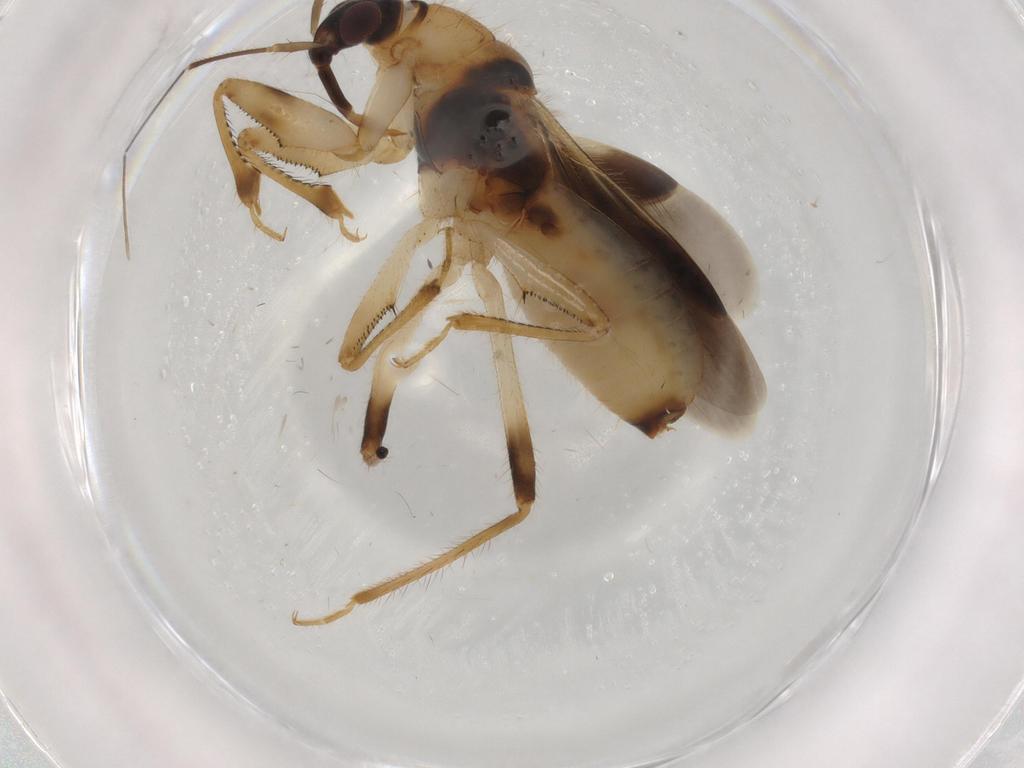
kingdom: Animalia
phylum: Arthropoda
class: Insecta
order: Hemiptera
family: Nabidae
